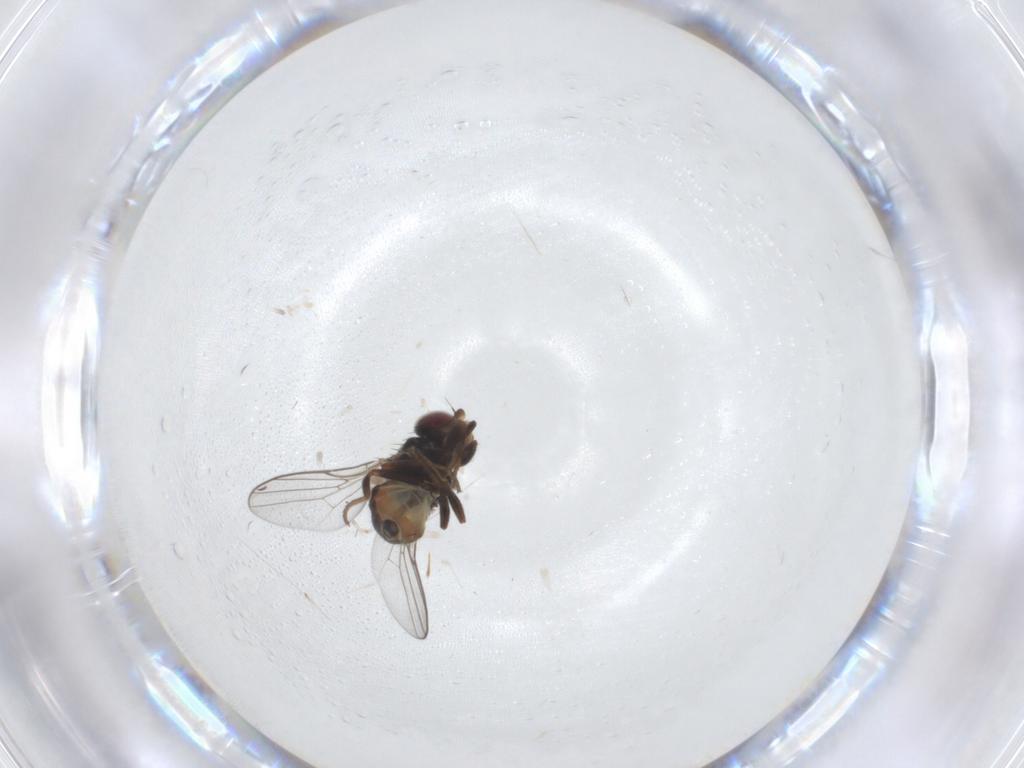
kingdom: Animalia
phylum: Arthropoda
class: Insecta
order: Diptera
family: Chloropidae
